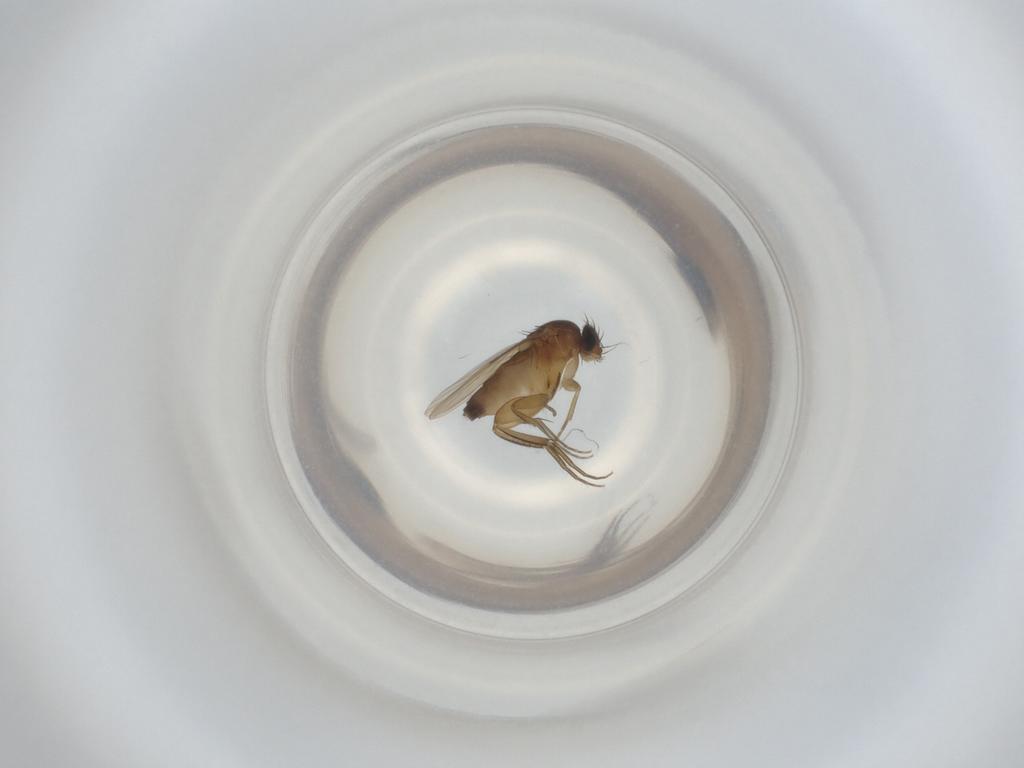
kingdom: Animalia
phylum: Arthropoda
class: Insecta
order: Diptera
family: Phoridae
